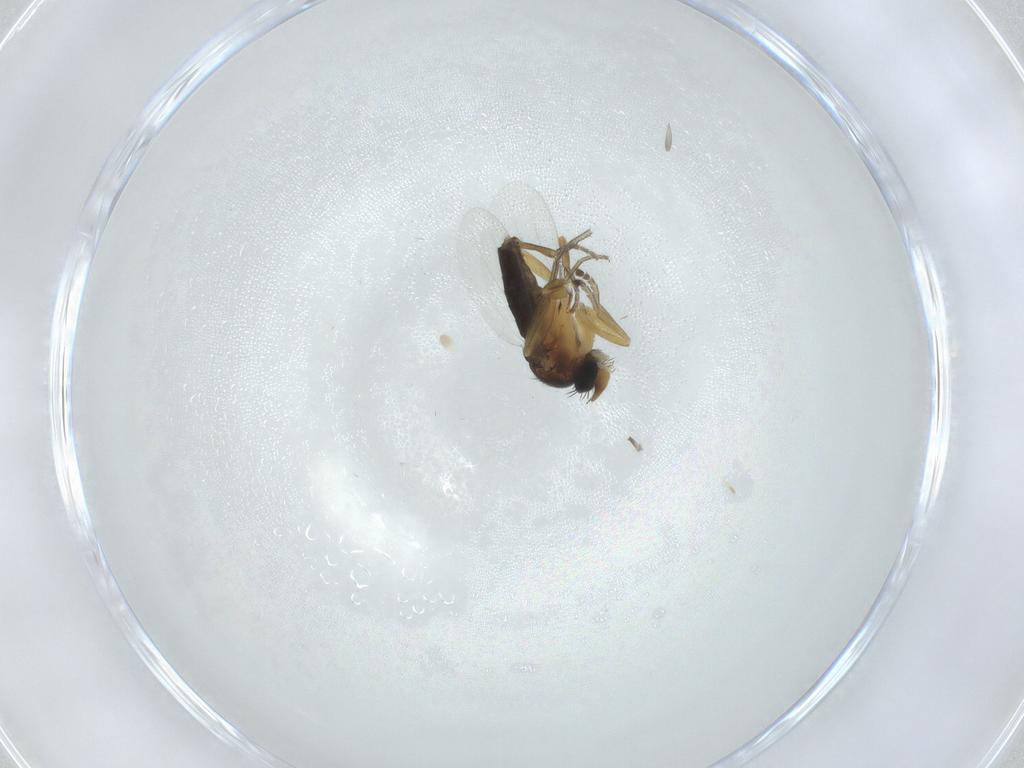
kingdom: Animalia
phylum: Arthropoda
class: Insecta
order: Diptera
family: Phoridae
